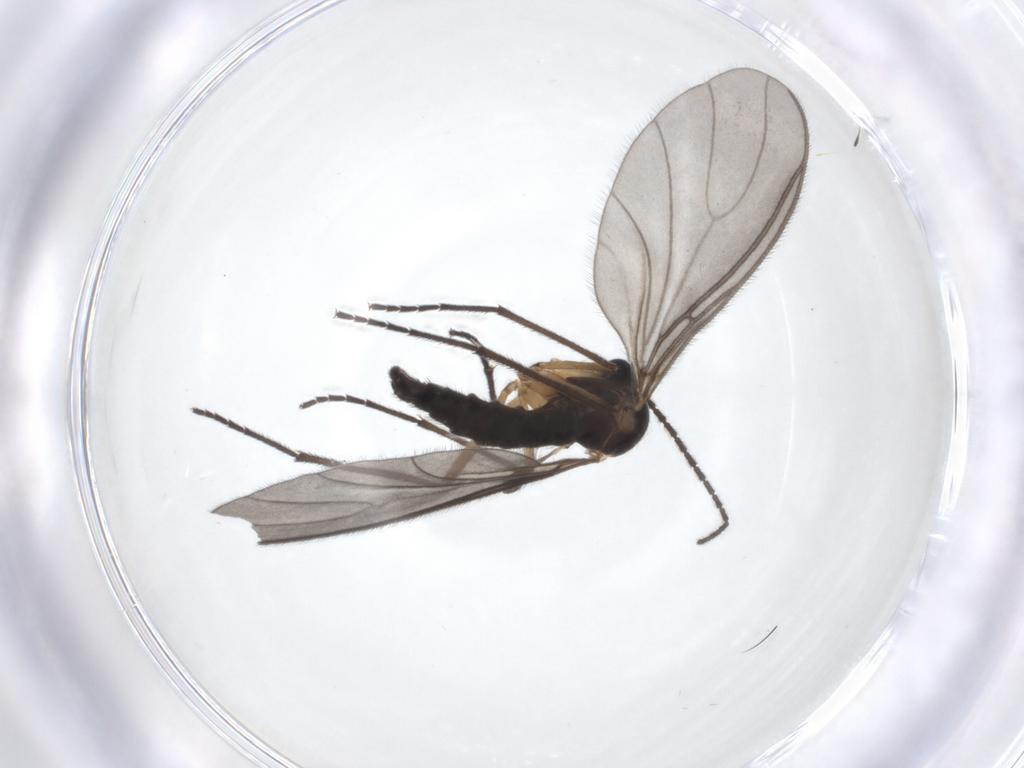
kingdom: Animalia
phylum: Arthropoda
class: Insecta
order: Diptera
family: Sciaridae
